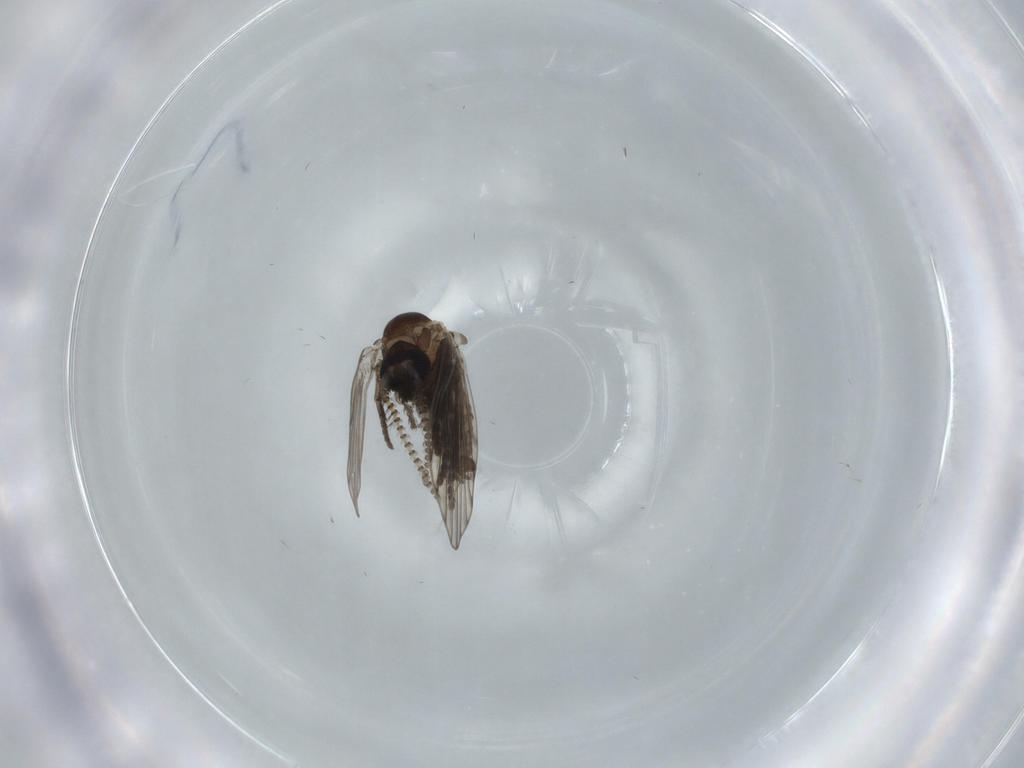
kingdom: Animalia
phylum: Arthropoda
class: Insecta
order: Diptera
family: Psychodidae
